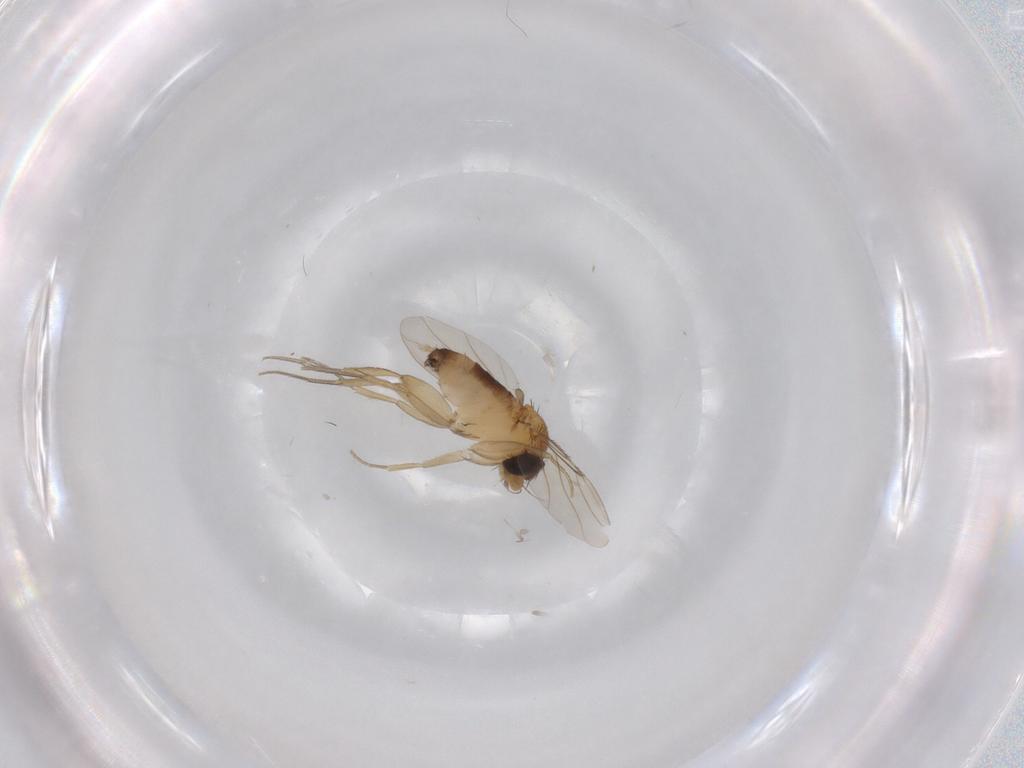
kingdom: Animalia
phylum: Arthropoda
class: Insecta
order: Diptera
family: Phoridae
